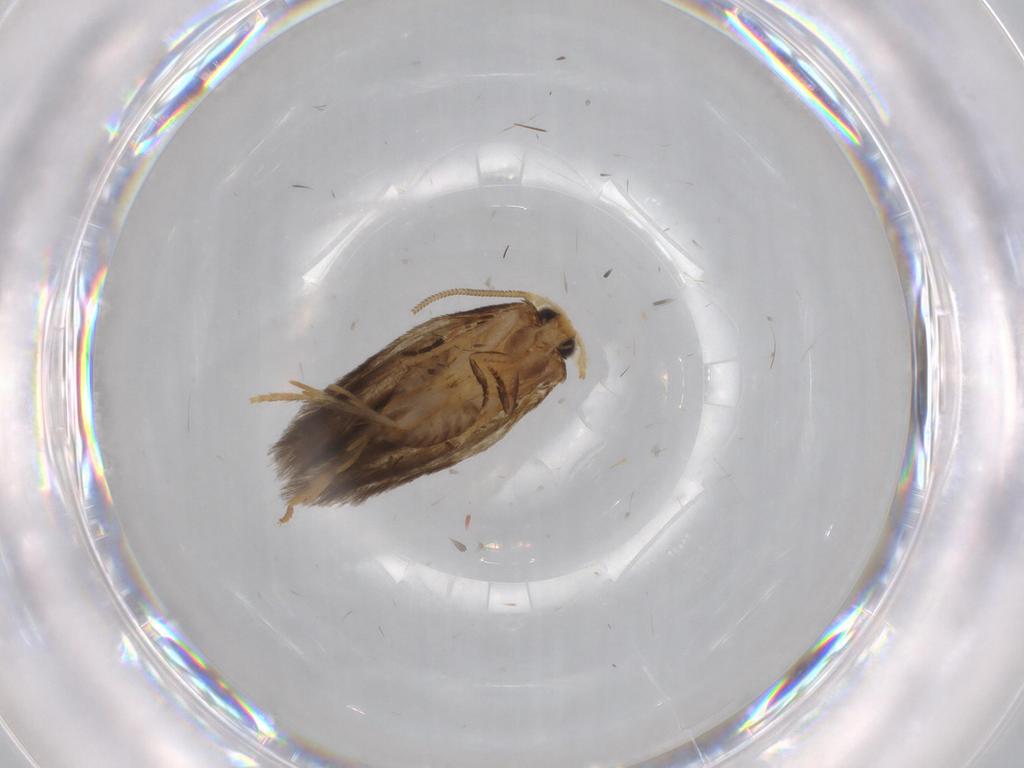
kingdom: Animalia
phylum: Arthropoda
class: Insecta
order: Lepidoptera
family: Nepticulidae
